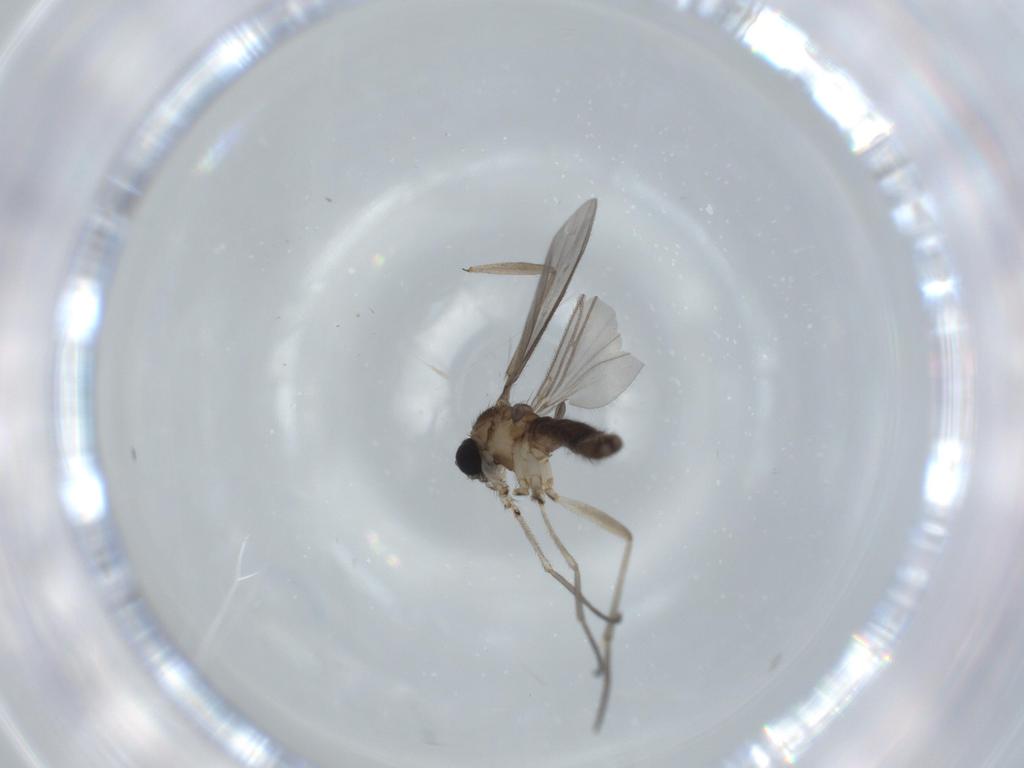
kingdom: Animalia
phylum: Arthropoda
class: Insecta
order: Diptera
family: Sciaridae
